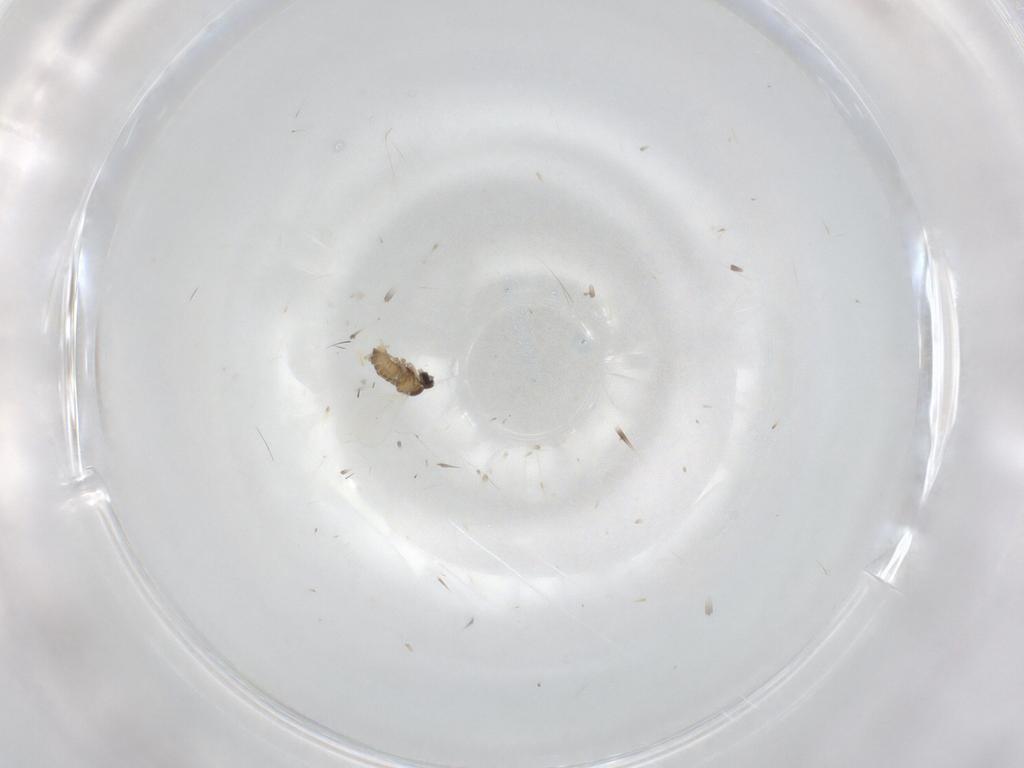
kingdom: Animalia
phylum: Arthropoda
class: Insecta
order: Diptera
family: Cecidomyiidae
